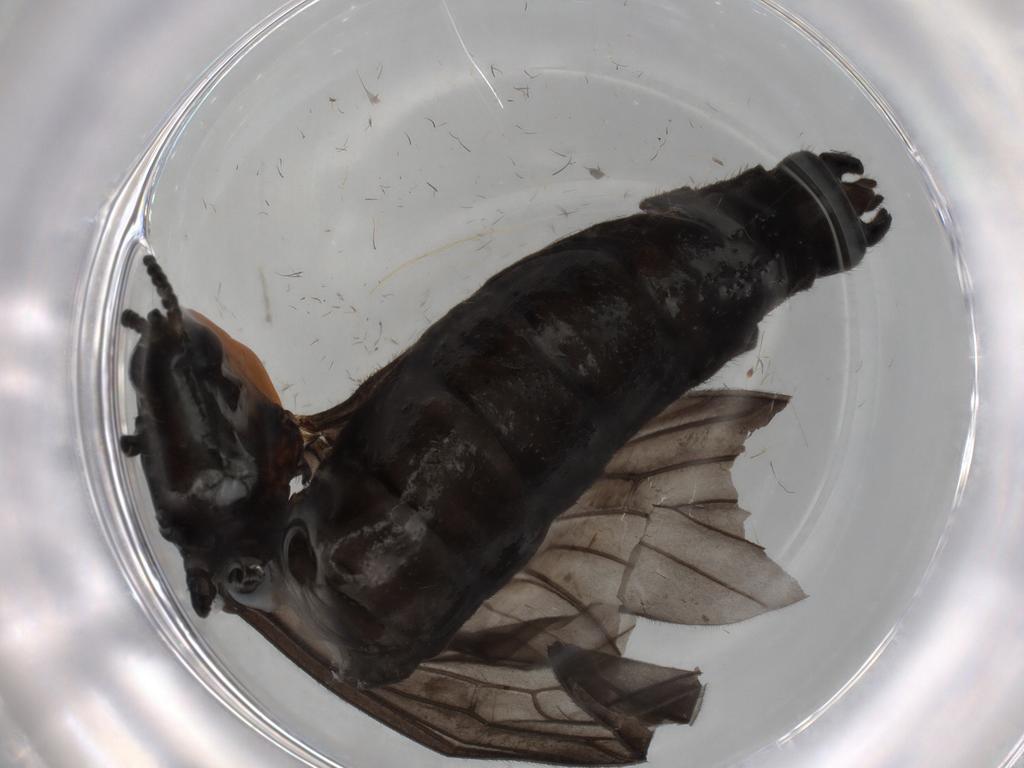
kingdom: Animalia
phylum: Arthropoda
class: Insecta
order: Diptera
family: Bibionidae
